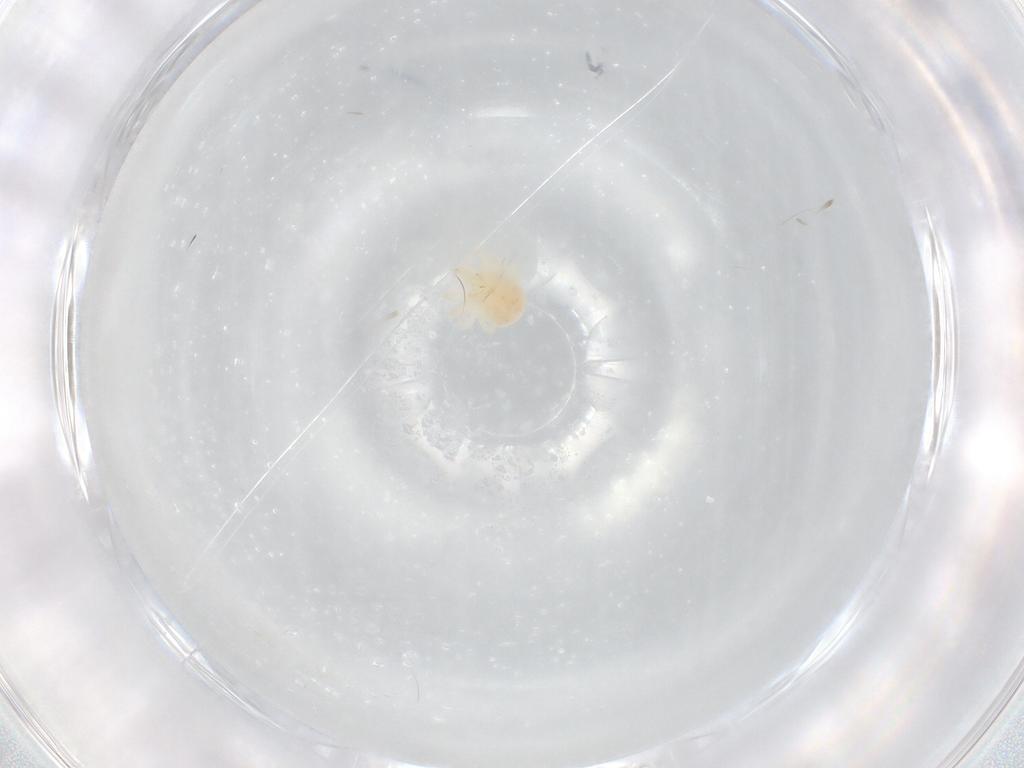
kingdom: Animalia
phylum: Arthropoda
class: Arachnida
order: Trombidiformes
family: Anystidae
